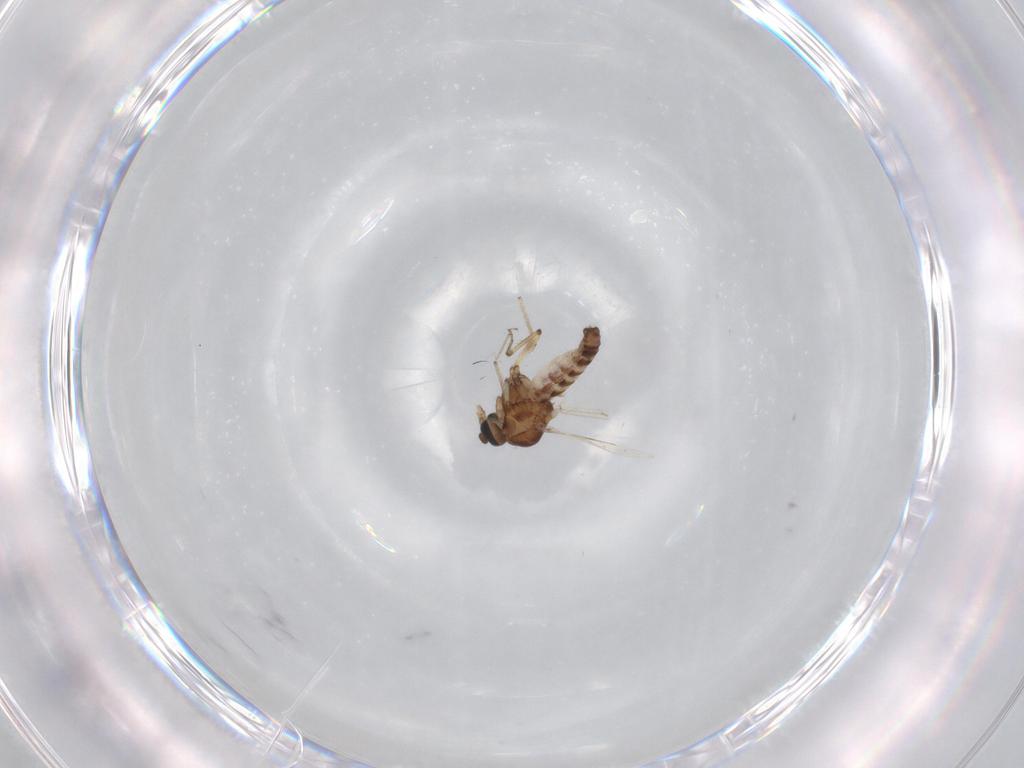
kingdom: Animalia
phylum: Arthropoda
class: Insecta
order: Diptera
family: Ceratopogonidae
